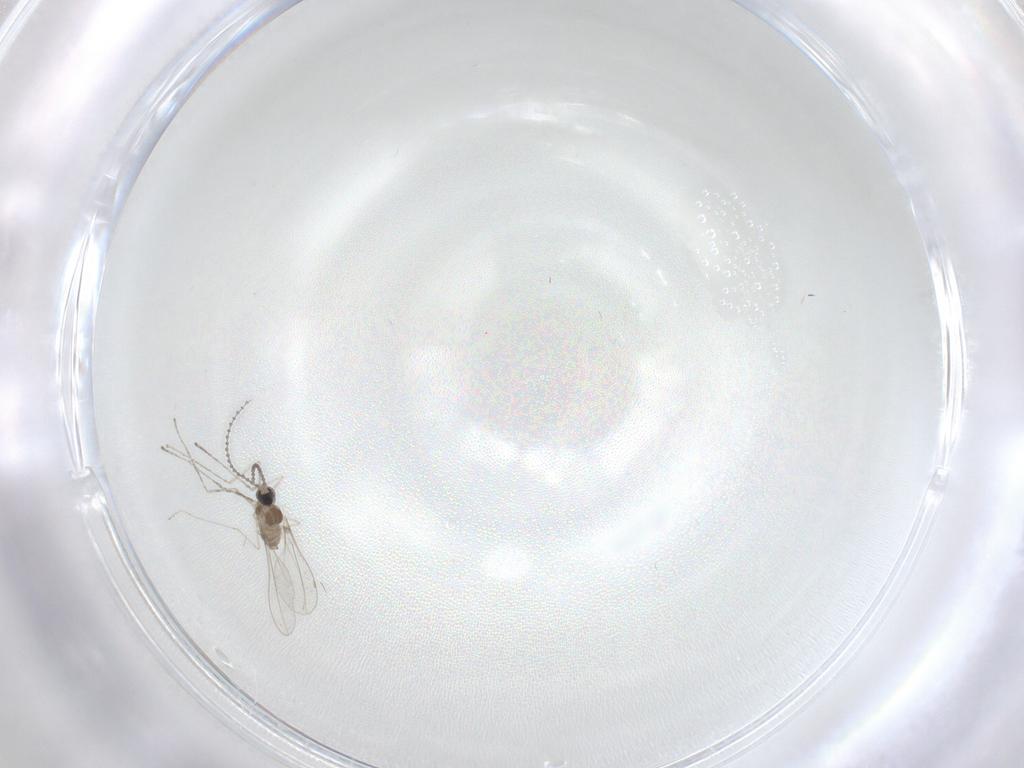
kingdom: Animalia
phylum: Arthropoda
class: Insecta
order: Diptera
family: Cecidomyiidae
